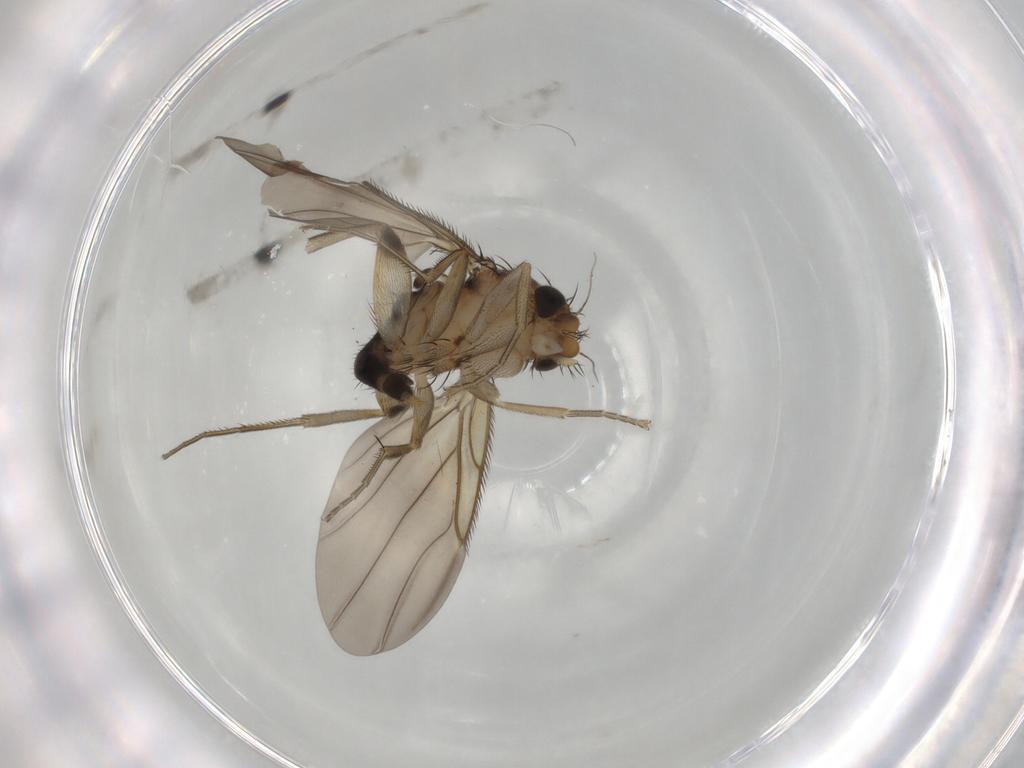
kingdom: Animalia
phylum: Arthropoda
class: Insecta
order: Diptera
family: Phoridae
